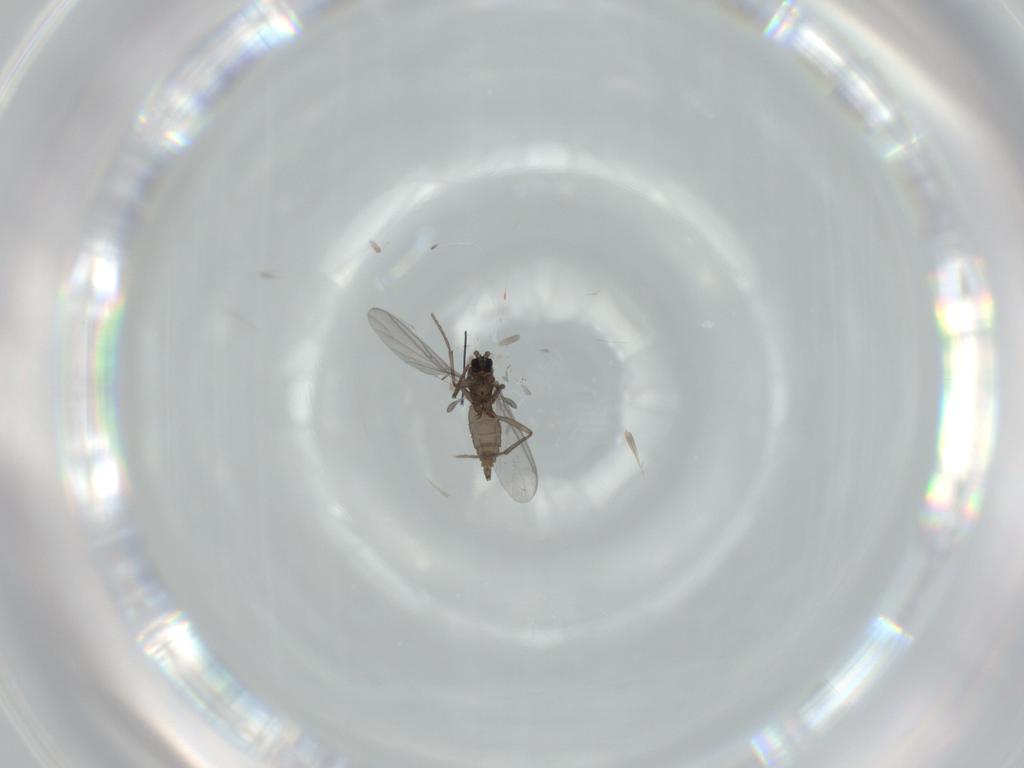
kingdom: Animalia
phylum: Arthropoda
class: Insecta
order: Diptera
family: Sciaridae
